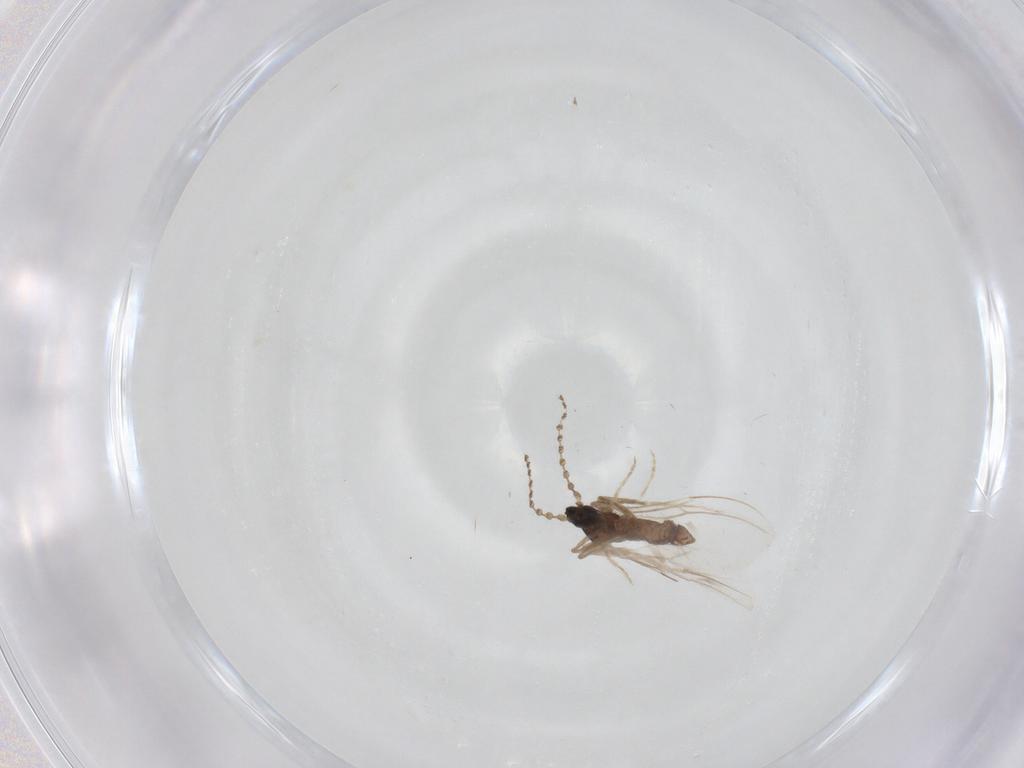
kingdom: Animalia
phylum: Arthropoda
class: Insecta
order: Diptera
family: Cecidomyiidae
